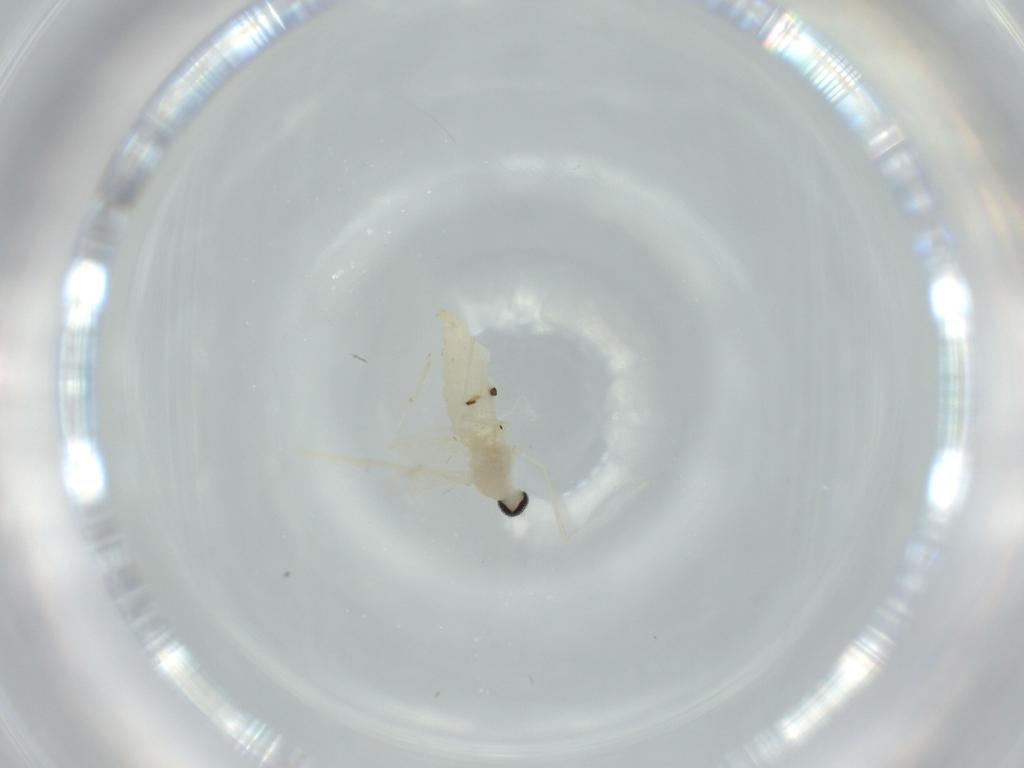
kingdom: Animalia
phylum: Arthropoda
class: Insecta
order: Diptera
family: Cecidomyiidae
